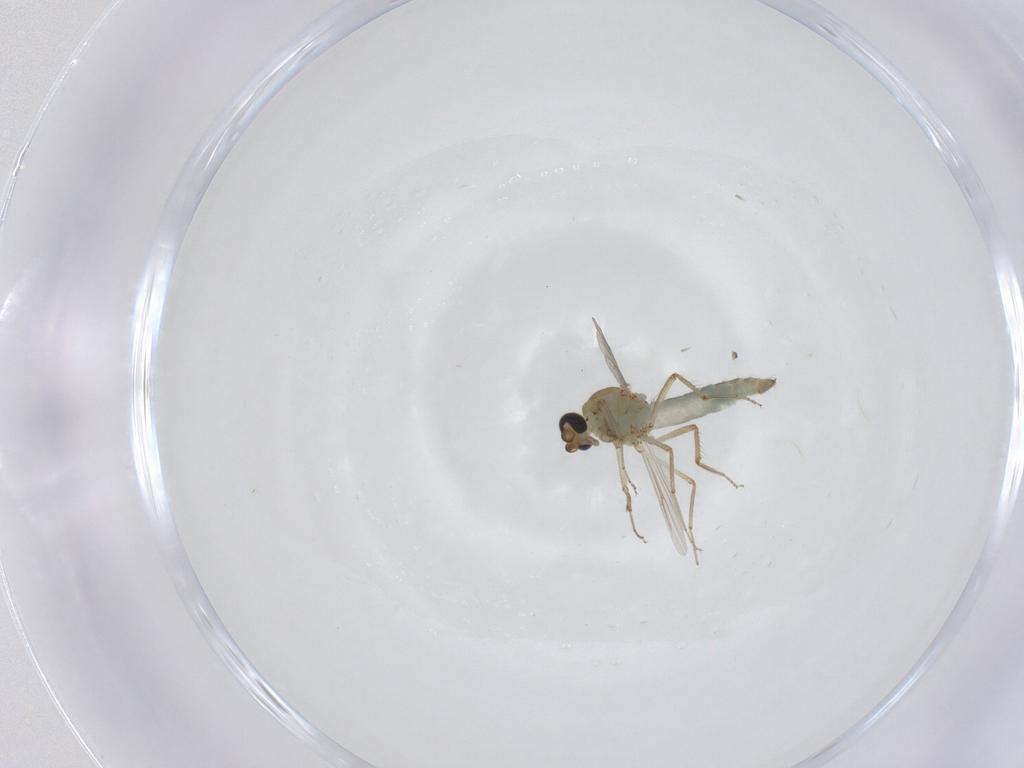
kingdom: Animalia
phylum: Arthropoda
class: Insecta
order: Diptera
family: Ceratopogonidae
